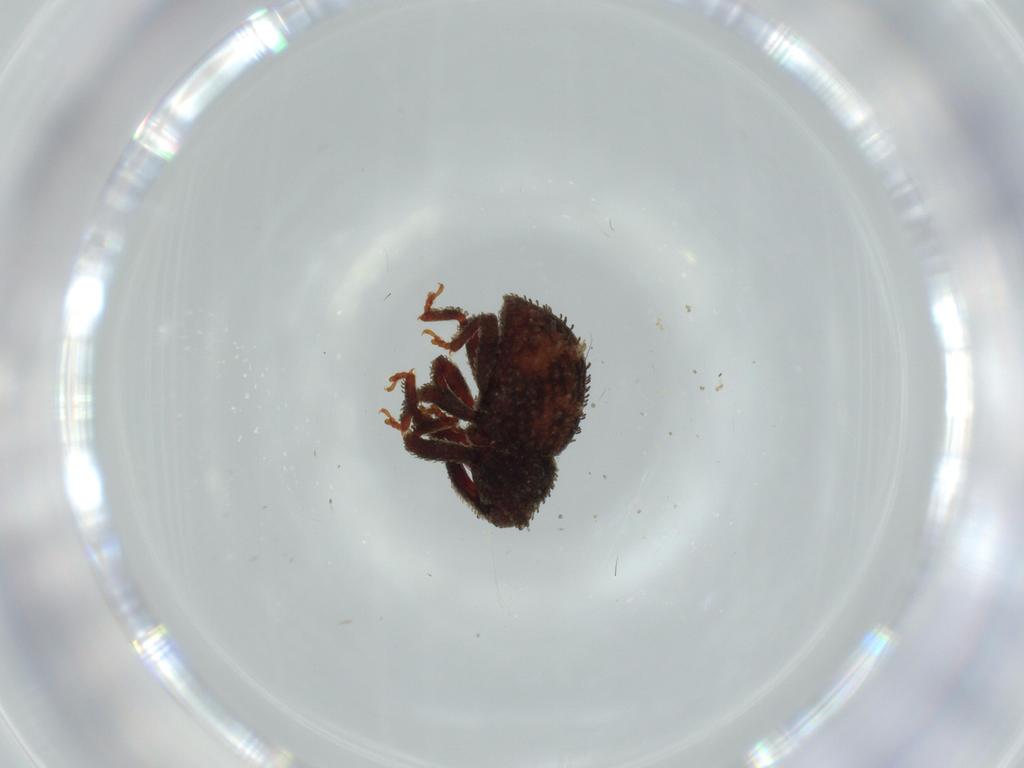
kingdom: Animalia
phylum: Arthropoda
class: Insecta
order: Coleoptera
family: Curculionidae
